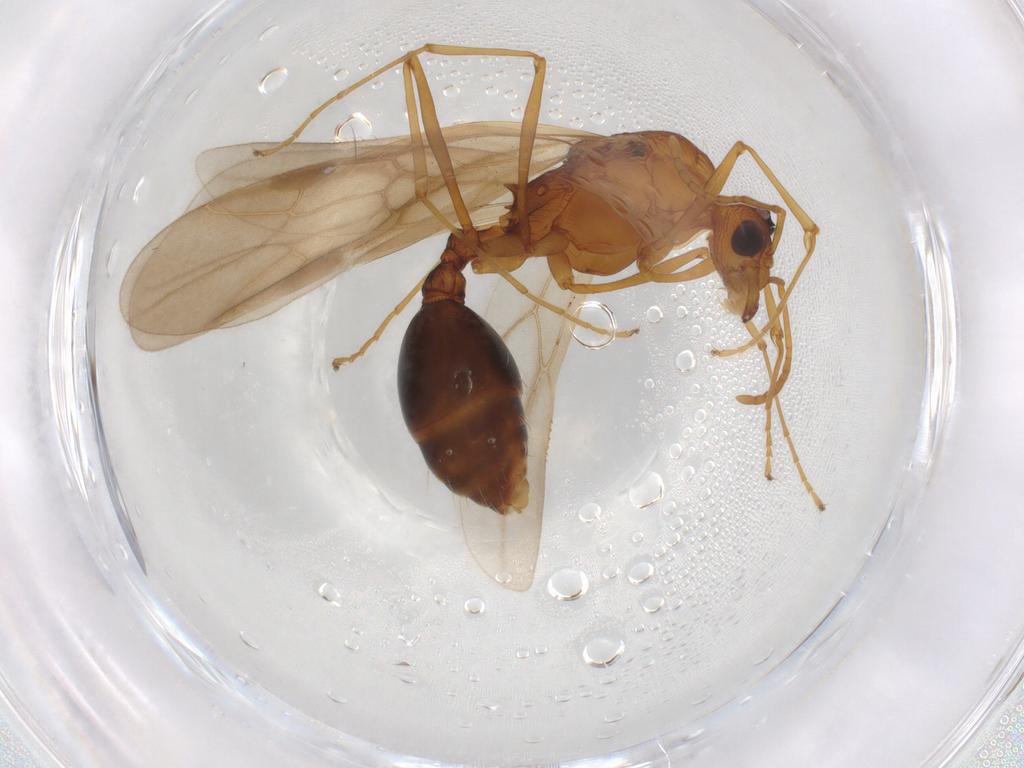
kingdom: Animalia
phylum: Arthropoda
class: Insecta
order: Hymenoptera
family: Formicidae
